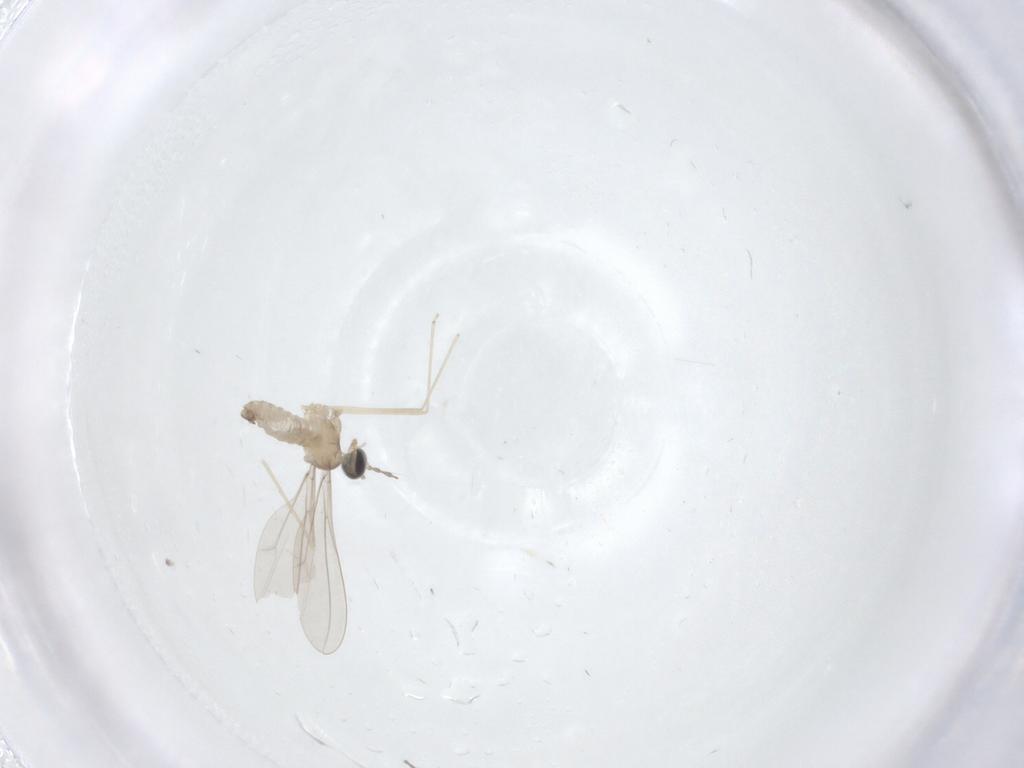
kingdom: Animalia
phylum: Arthropoda
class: Insecta
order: Diptera
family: Cecidomyiidae
